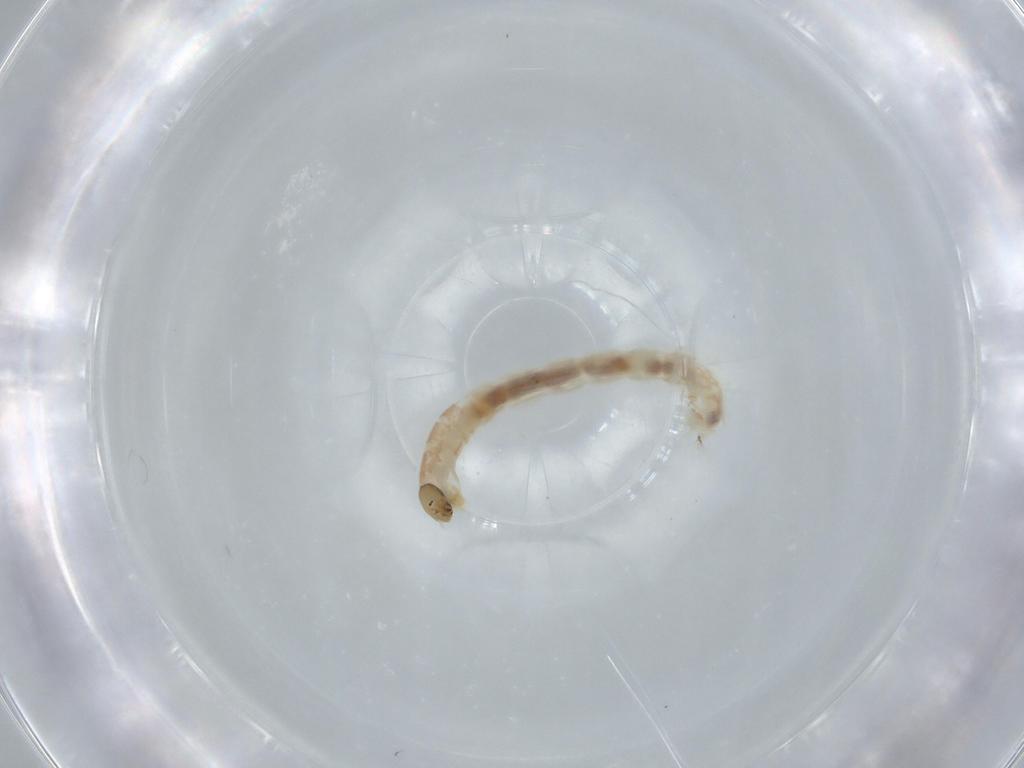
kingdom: Animalia
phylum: Arthropoda
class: Insecta
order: Diptera
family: Chironomidae
